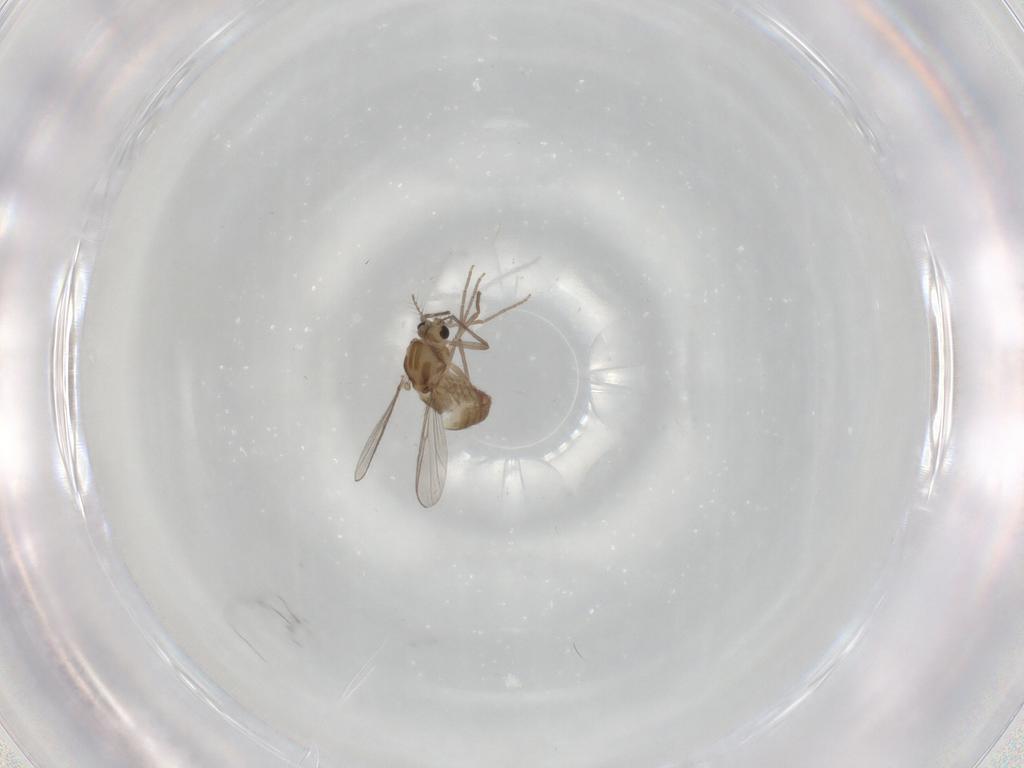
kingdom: Animalia
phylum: Arthropoda
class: Insecta
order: Diptera
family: Chironomidae
